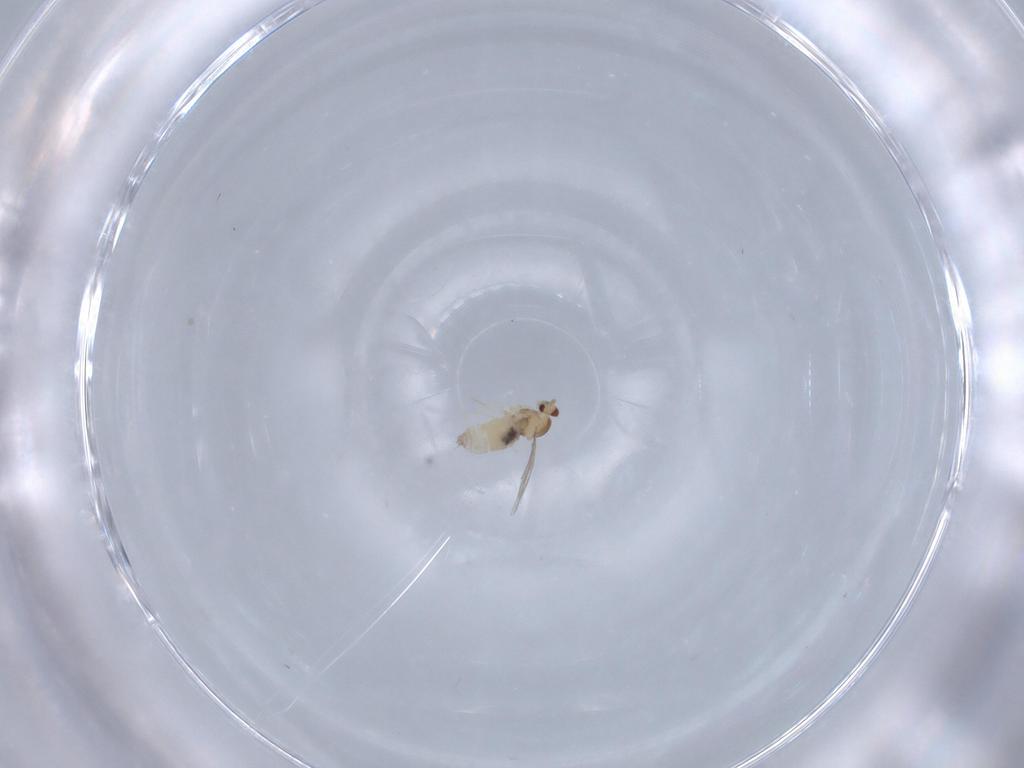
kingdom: Animalia
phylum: Arthropoda
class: Insecta
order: Diptera
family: Cecidomyiidae
